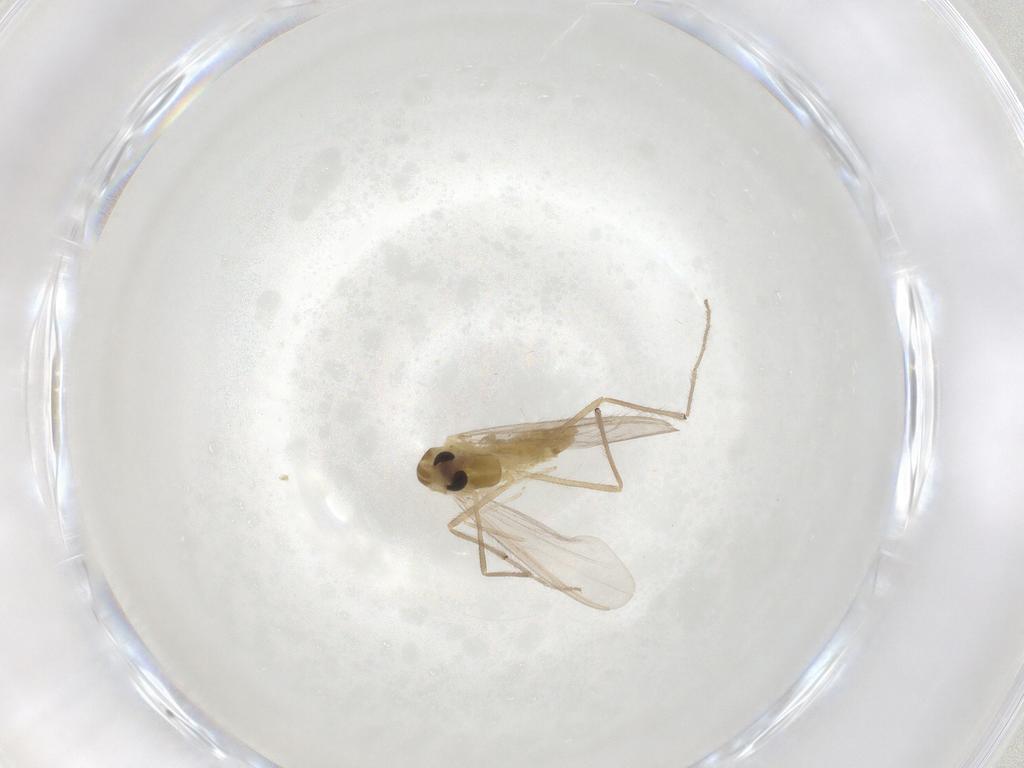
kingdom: Animalia
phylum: Arthropoda
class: Insecta
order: Diptera
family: Chironomidae
